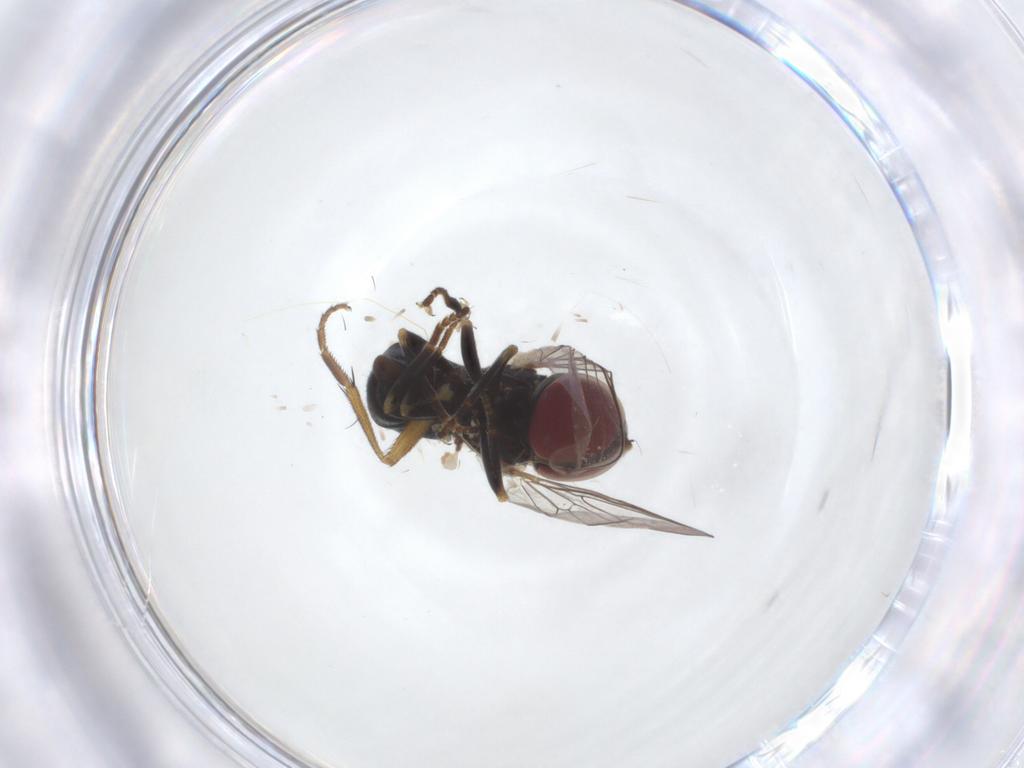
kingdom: Animalia
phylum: Arthropoda
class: Insecta
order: Diptera
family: Pipunculidae
